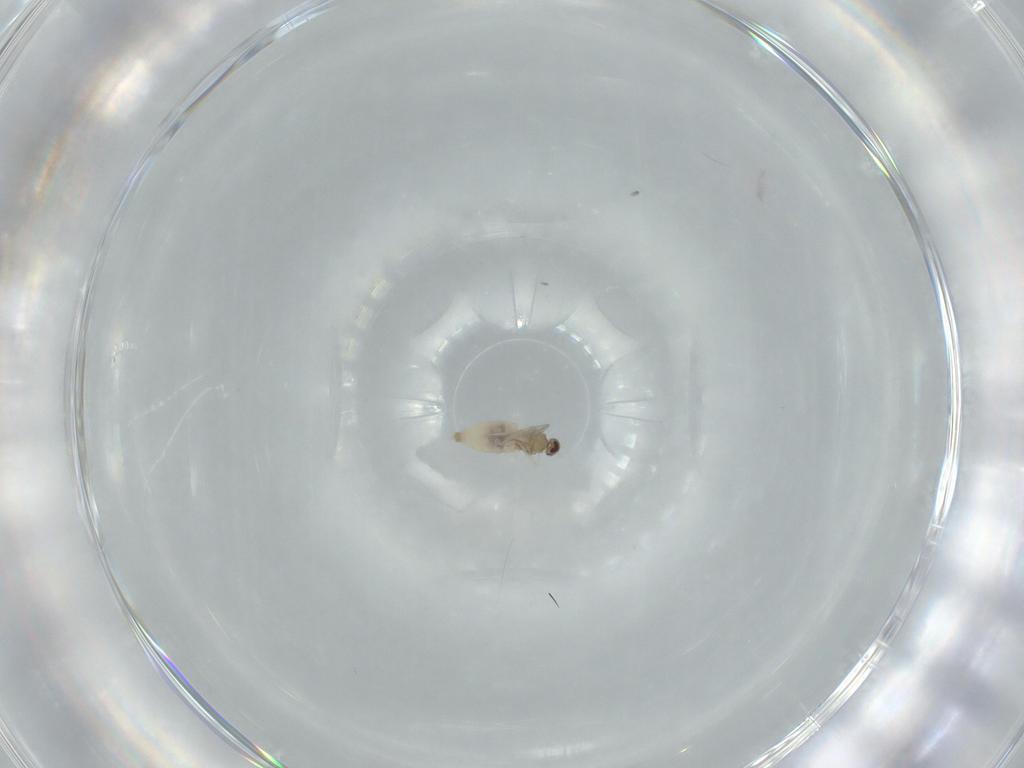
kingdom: Animalia
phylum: Arthropoda
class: Insecta
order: Diptera
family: Cecidomyiidae
